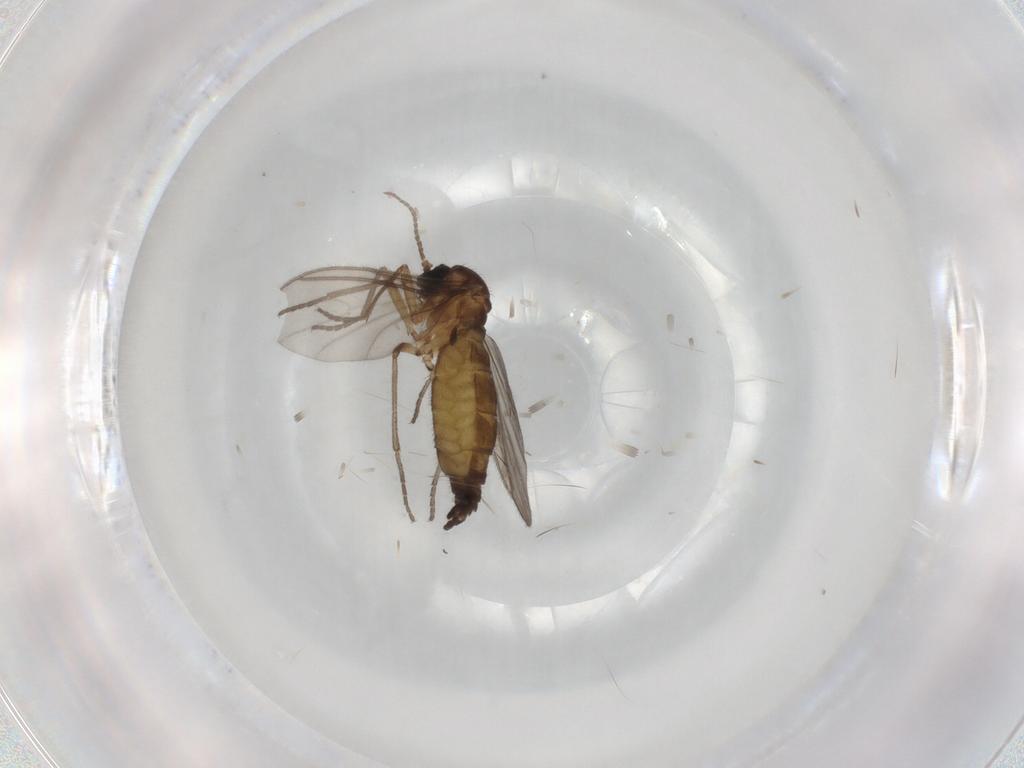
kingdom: Animalia
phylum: Arthropoda
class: Insecta
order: Diptera
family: Sciaridae
